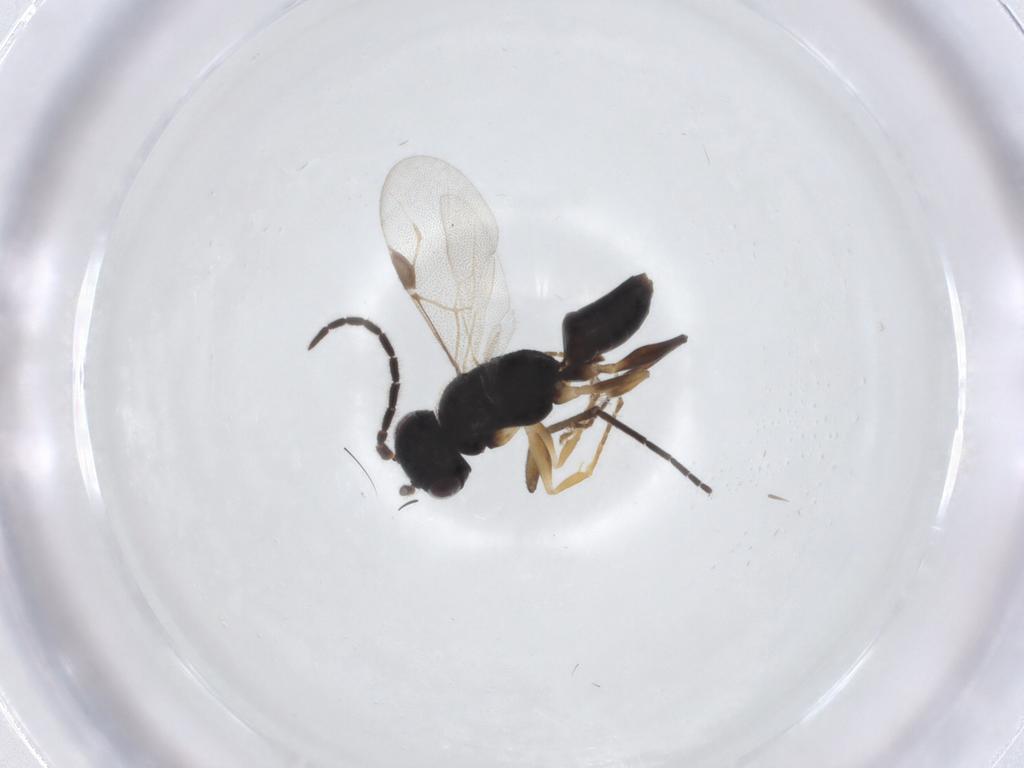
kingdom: Animalia
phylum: Arthropoda
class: Insecta
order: Hymenoptera
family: Dryinidae
